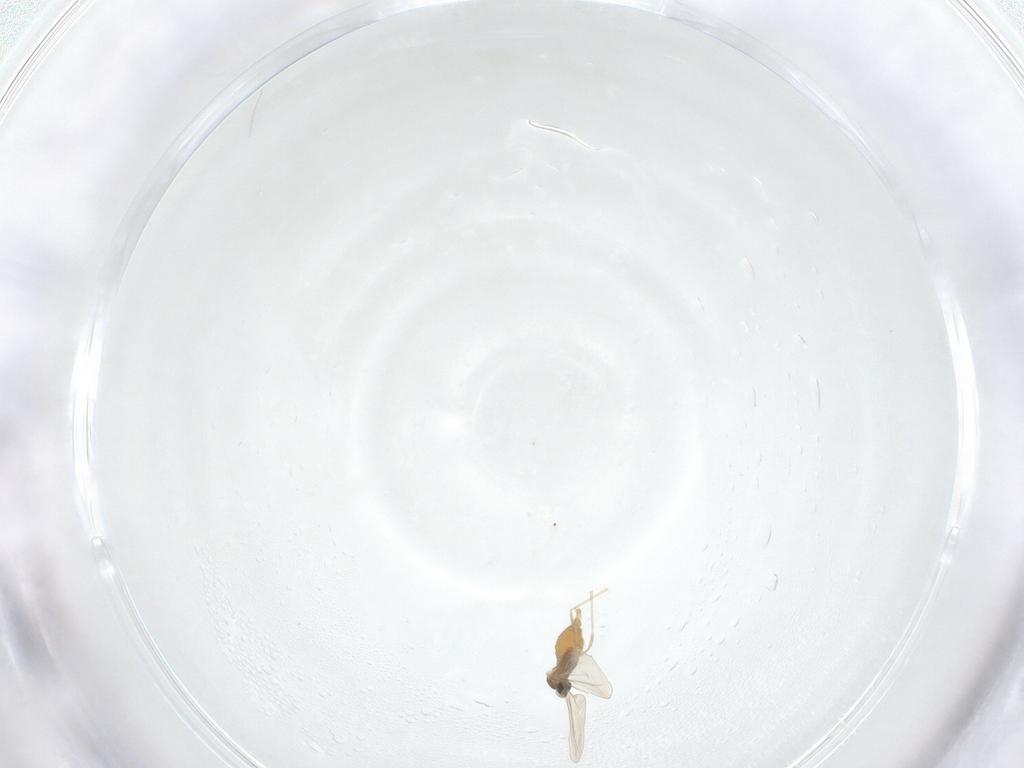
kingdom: Animalia
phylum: Arthropoda
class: Insecta
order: Diptera
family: Cecidomyiidae
